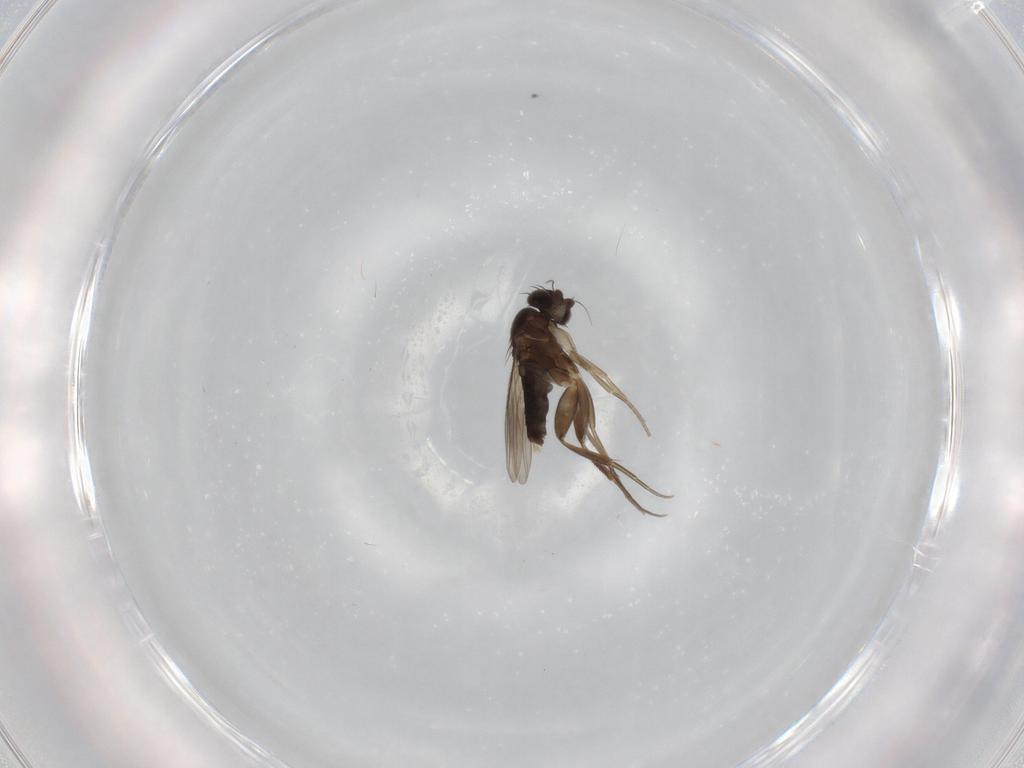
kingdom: Animalia
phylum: Arthropoda
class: Insecta
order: Diptera
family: Phoridae
